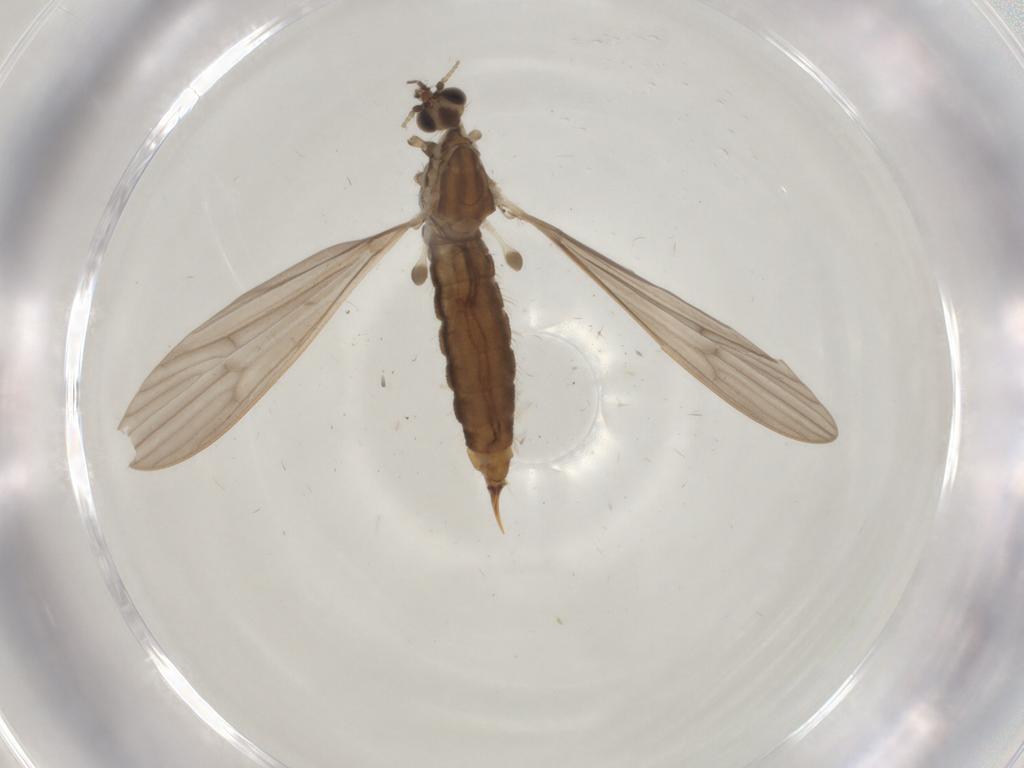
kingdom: Animalia
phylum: Arthropoda
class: Insecta
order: Diptera
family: Limoniidae
